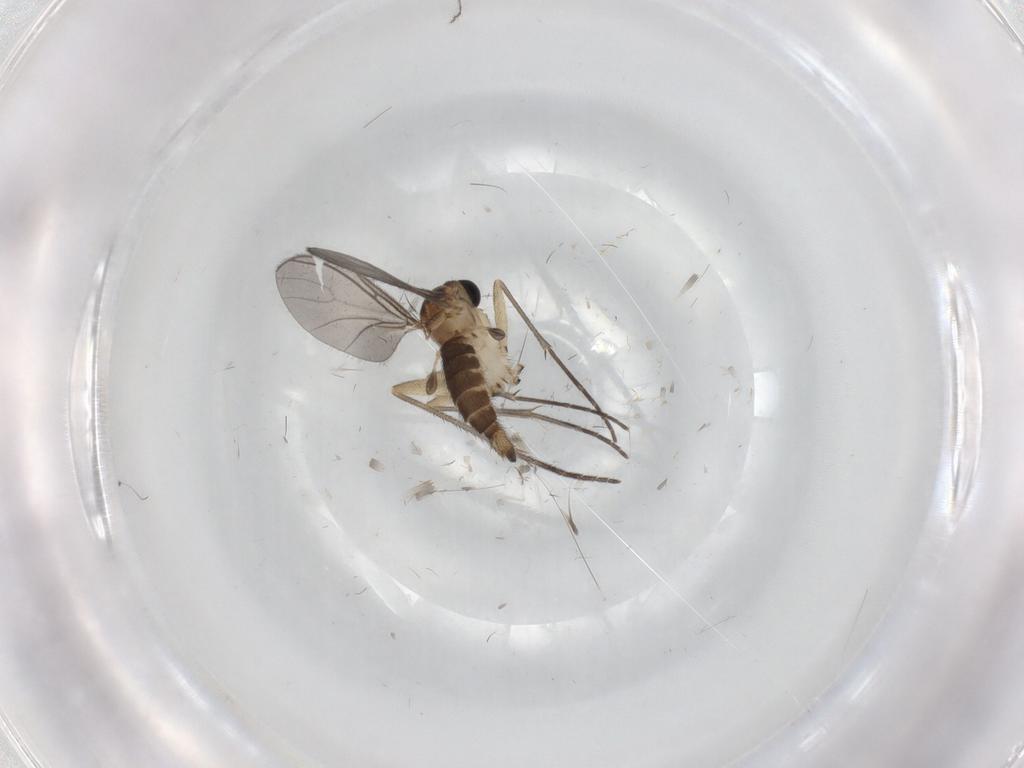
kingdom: Animalia
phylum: Arthropoda
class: Insecta
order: Diptera
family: Ceratopogonidae
